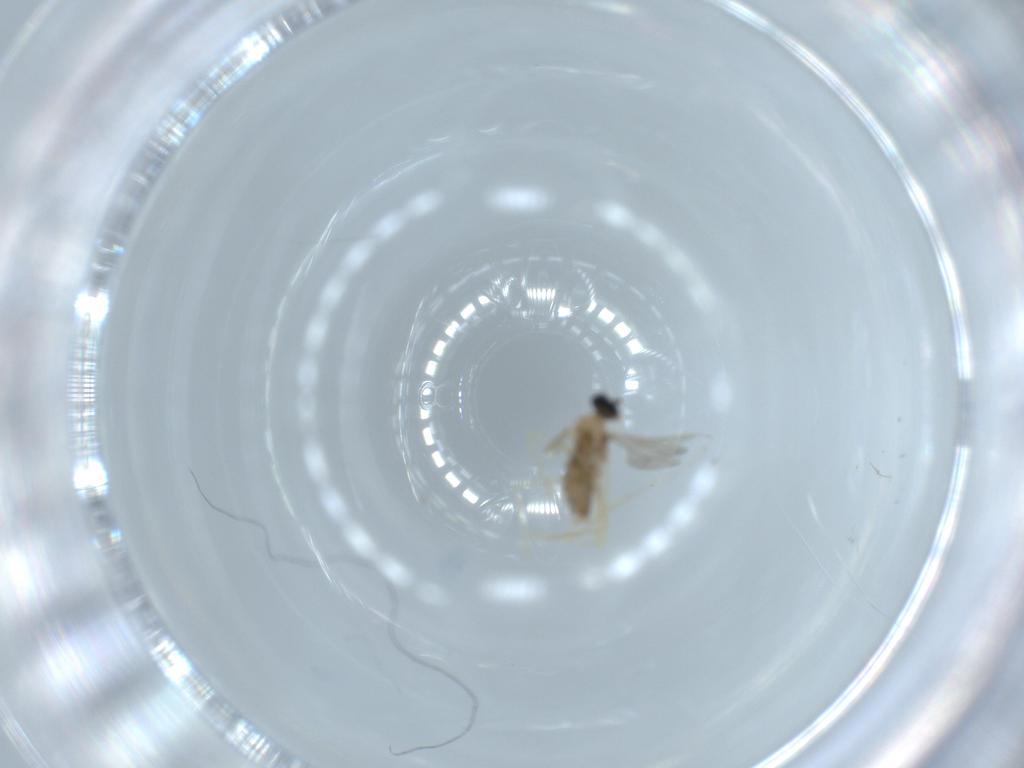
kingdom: Animalia
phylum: Arthropoda
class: Insecta
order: Diptera
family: Cecidomyiidae
